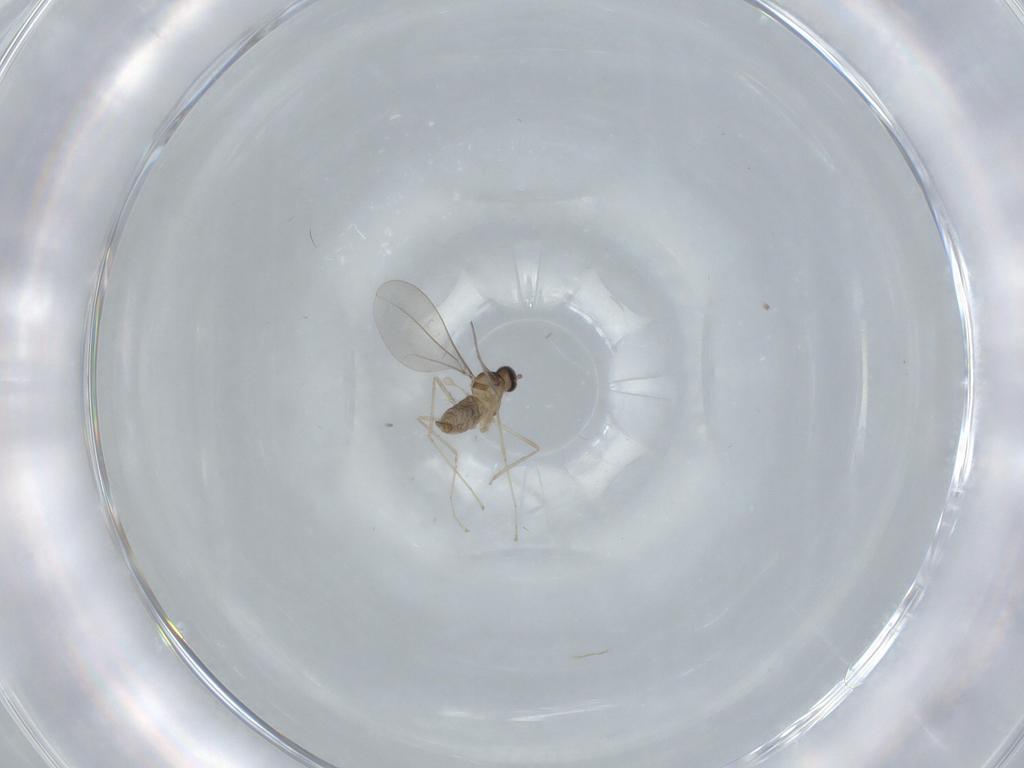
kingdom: Animalia
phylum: Arthropoda
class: Insecta
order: Diptera
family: Cecidomyiidae
